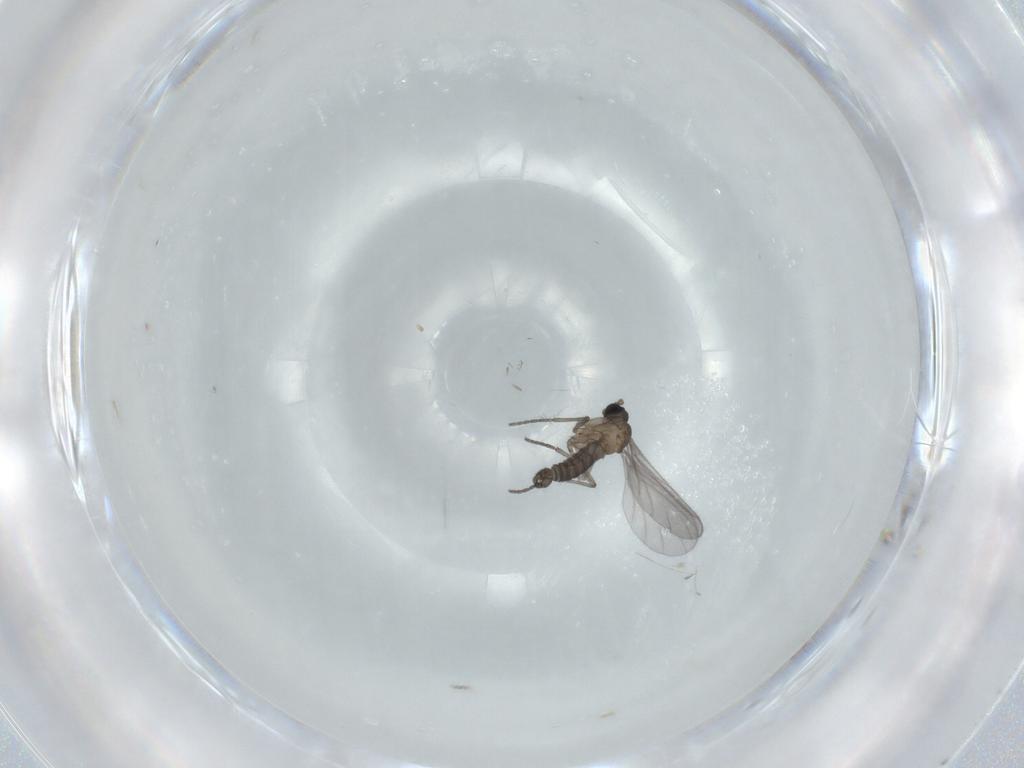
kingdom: Animalia
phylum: Arthropoda
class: Insecta
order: Diptera
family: Sciaridae
